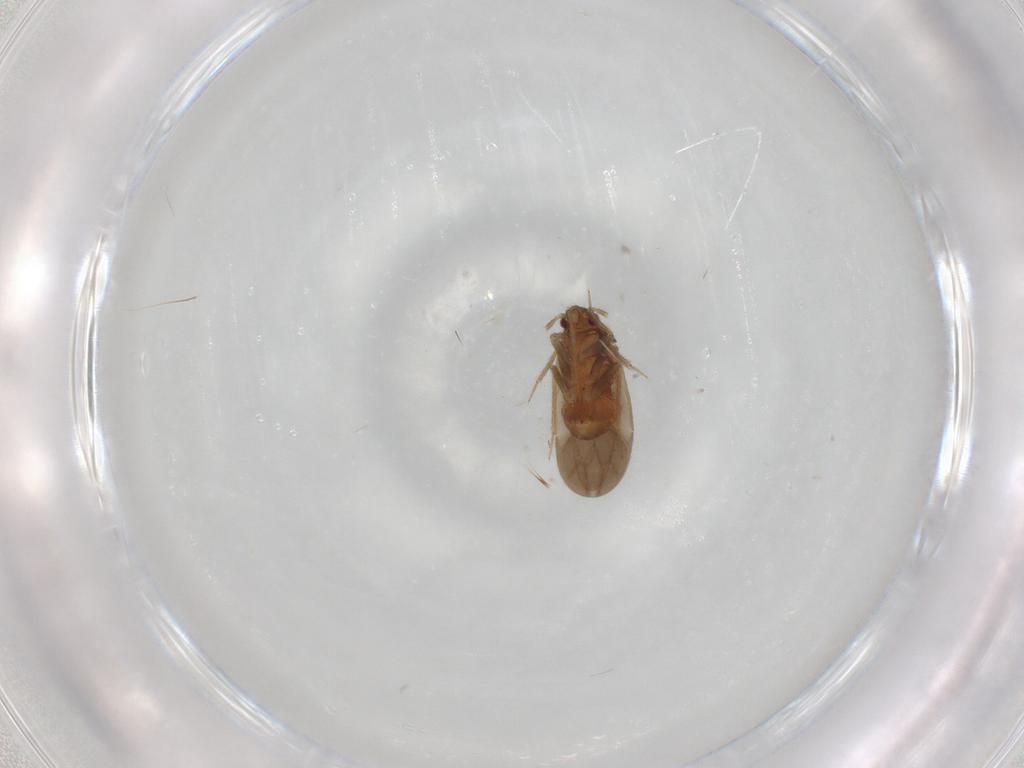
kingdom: Animalia
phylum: Arthropoda
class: Insecta
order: Hemiptera
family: Ceratocombidae
